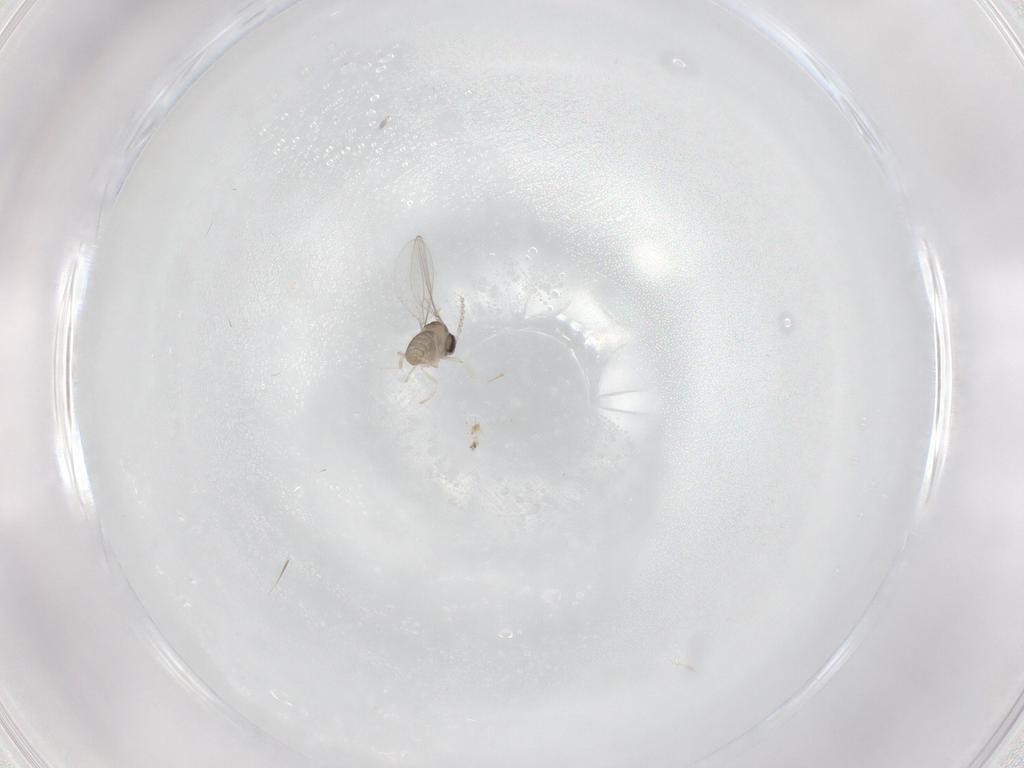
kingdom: Animalia
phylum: Arthropoda
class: Insecta
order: Diptera
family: Cecidomyiidae
